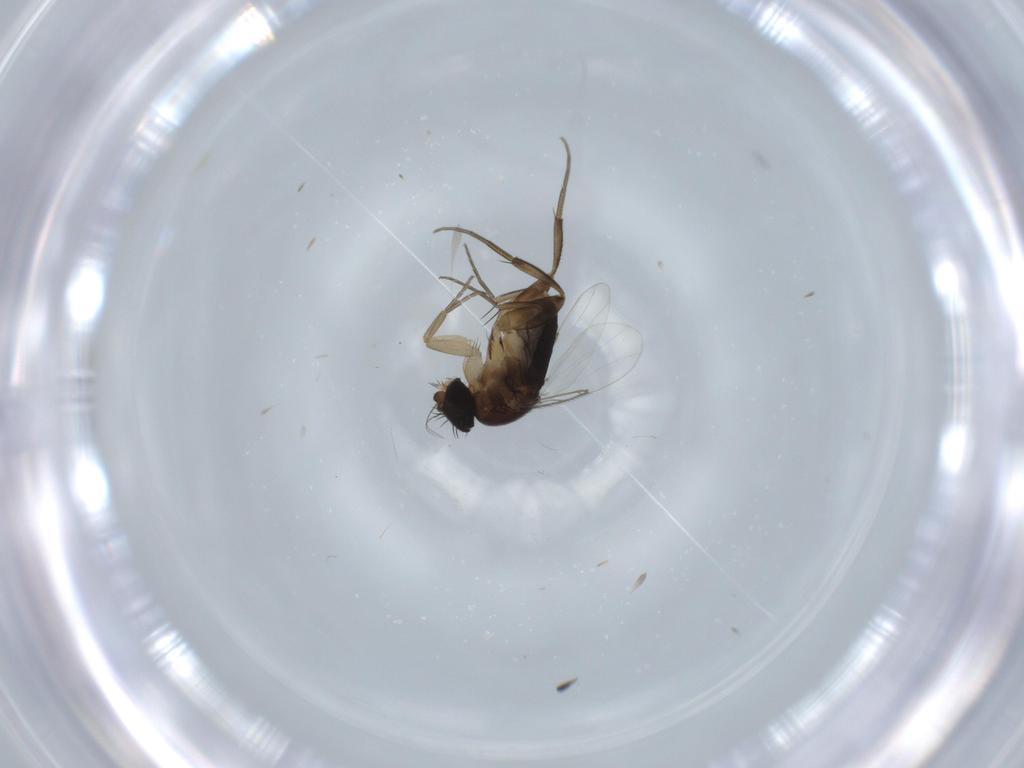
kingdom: Animalia
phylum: Arthropoda
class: Insecta
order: Diptera
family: Phoridae
